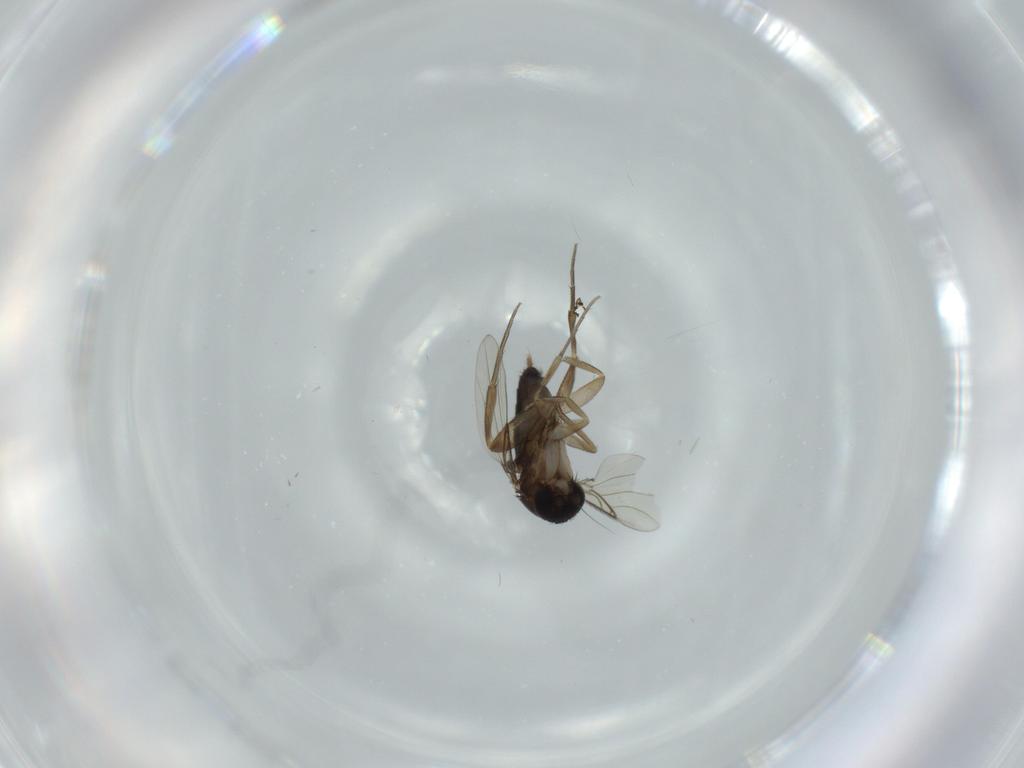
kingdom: Animalia
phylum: Arthropoda
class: Insecta
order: Diptera
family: Phoridae
